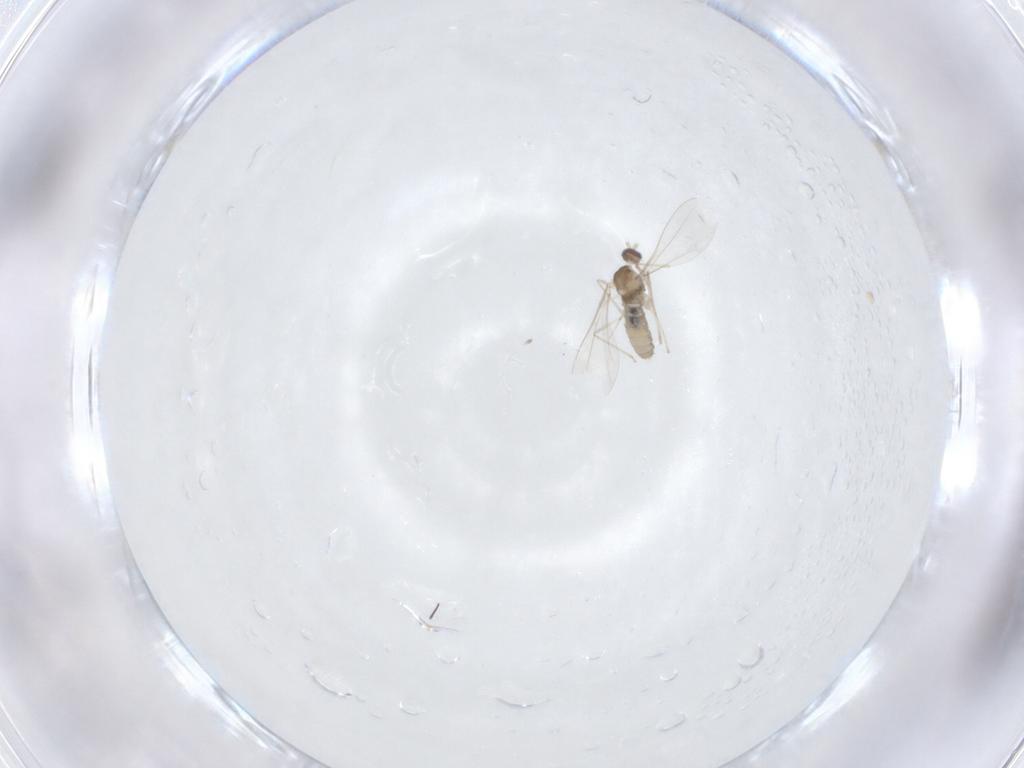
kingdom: Animalia
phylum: Arthropoda
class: Insecta
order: Diptera
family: Cecidomyiidae
